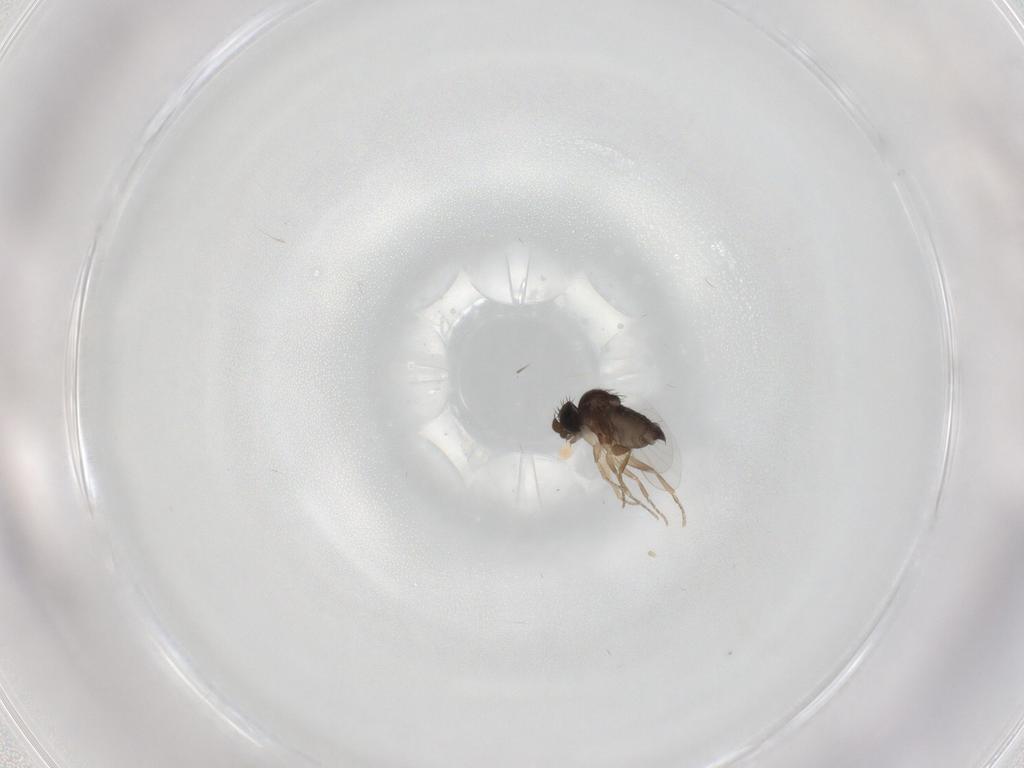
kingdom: Animalia
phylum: Arthropoda
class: Insecta
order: Diptera
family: Phoridae
